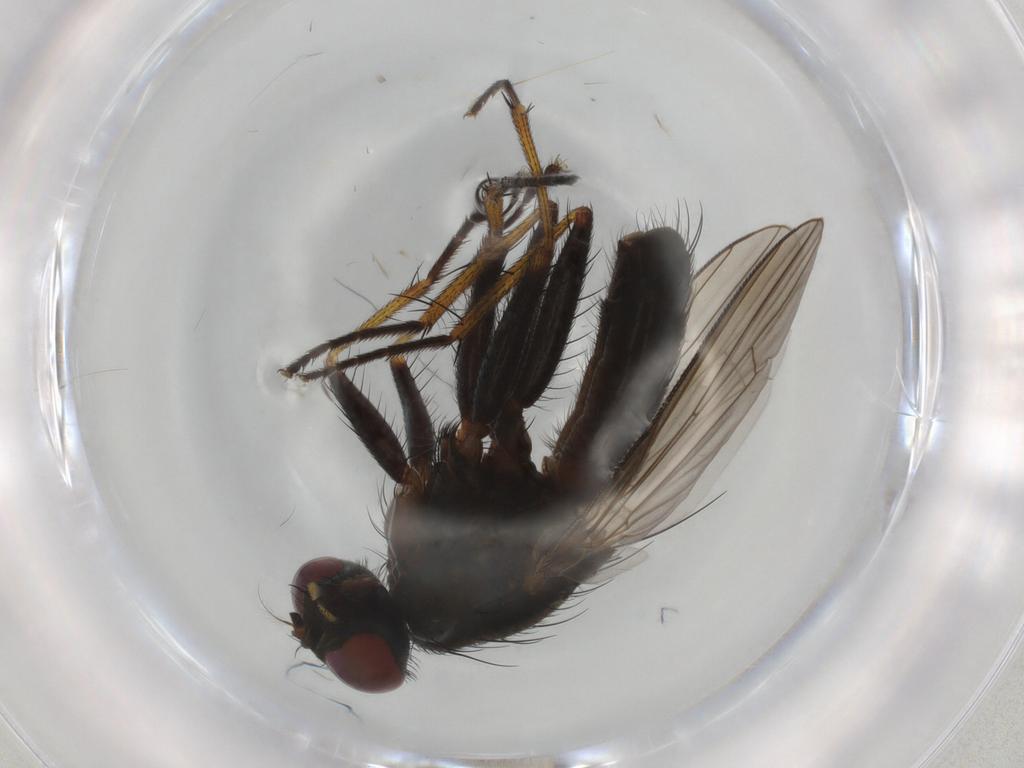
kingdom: Animalia
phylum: Arthropoda
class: Insecta
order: Diptera
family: Muscidae
